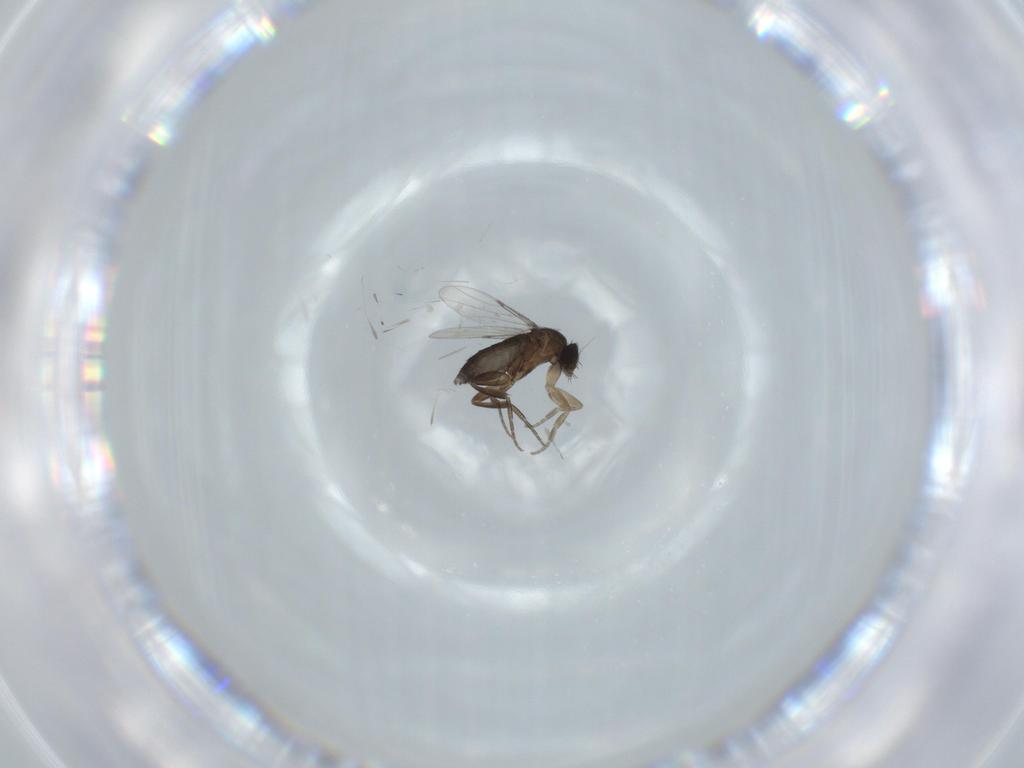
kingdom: Animalia
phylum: Arthropoda
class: Insecta
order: Diptera
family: Phoridae
